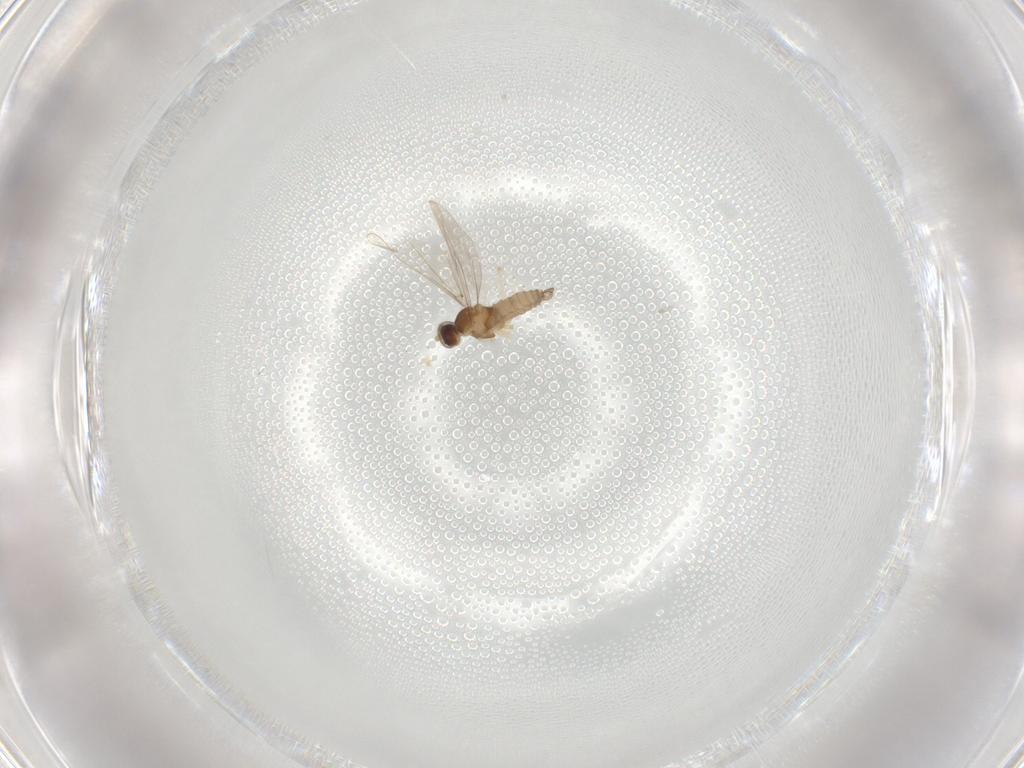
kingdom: Animalia
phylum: Arthropoda
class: Insecta
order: Diptera
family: Cecidomyiidae
